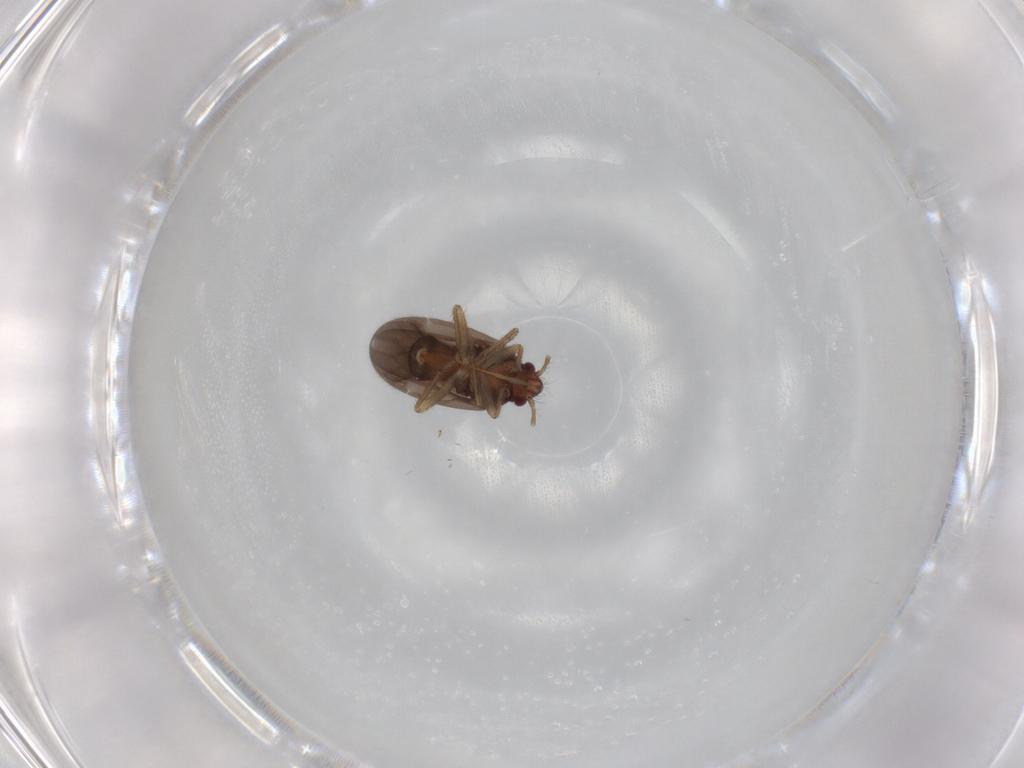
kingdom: Animalia
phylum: Arthropoda
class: Insecta
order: Hemiptera
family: Ceratocombidae
